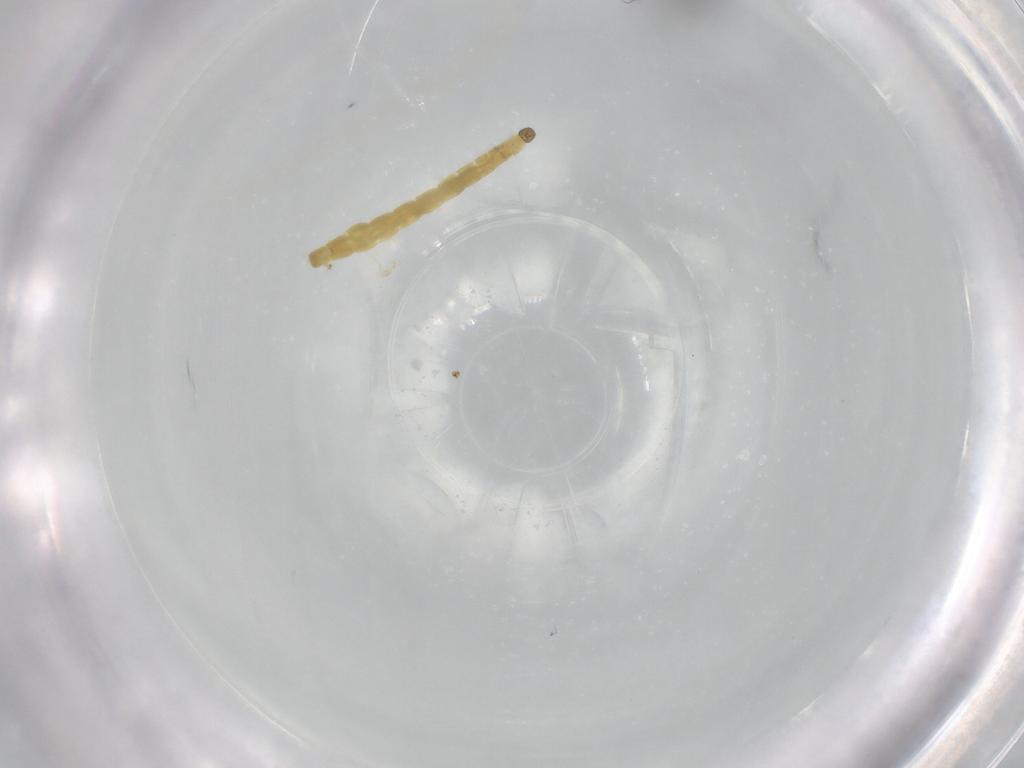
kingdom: Animalia
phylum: Arthropoda
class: Insecta
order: Diptera
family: Chironomidae
